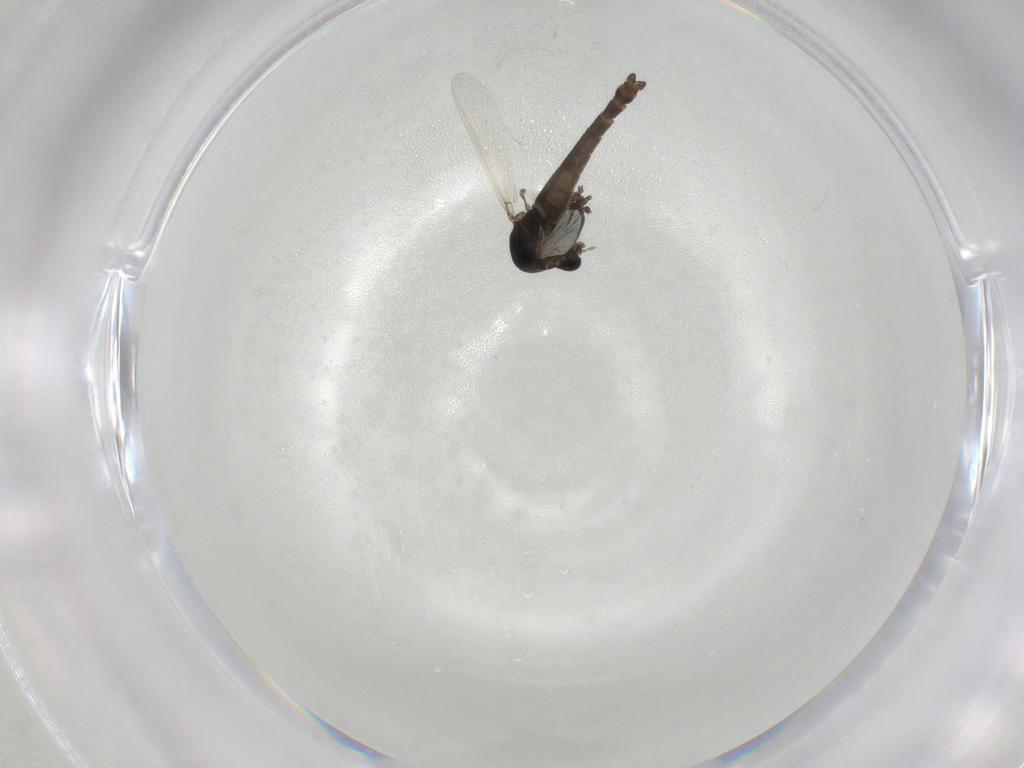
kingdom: Animalia
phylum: Arthropoda
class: Insecta
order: Diptera
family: Chironomidae
